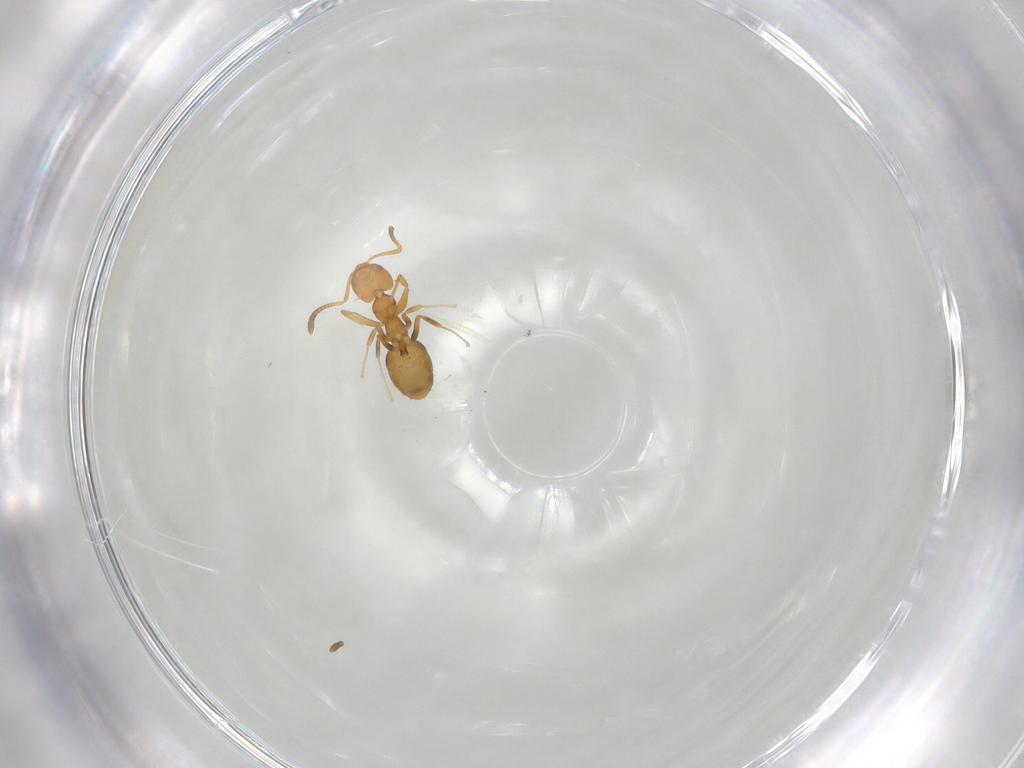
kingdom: Animalia
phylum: Arthropoda
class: Insecta
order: Hymenoptera
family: Formicidae
